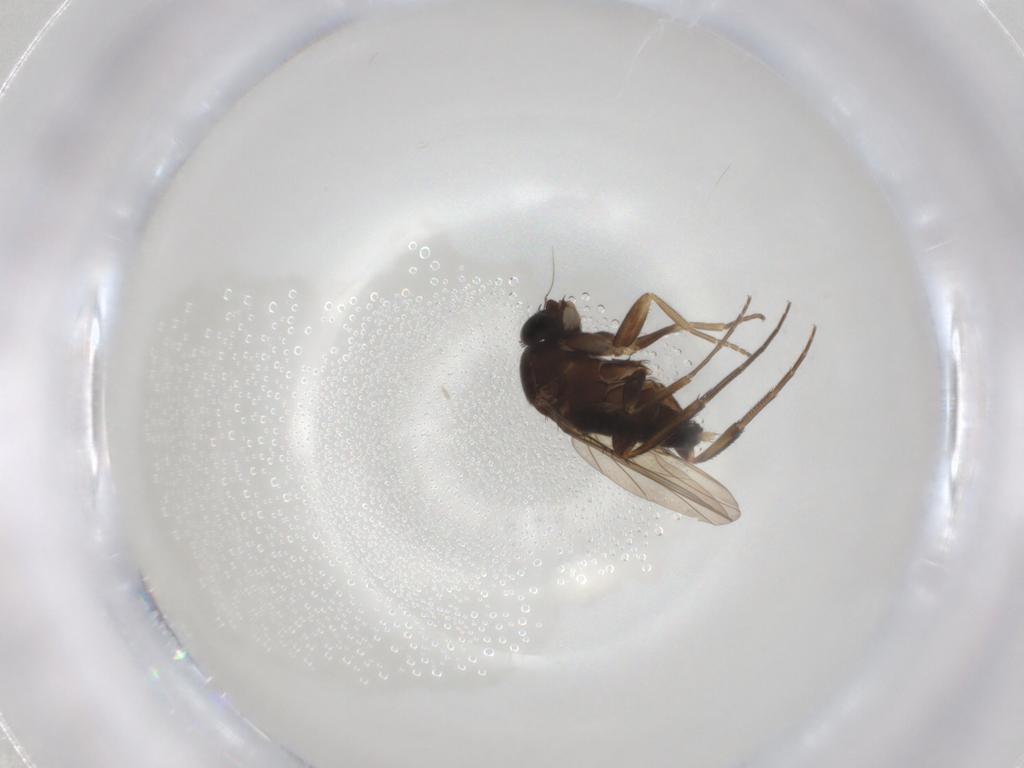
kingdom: Animalia
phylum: Arthropoda
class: Insecta
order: Diptera
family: Phoridae
